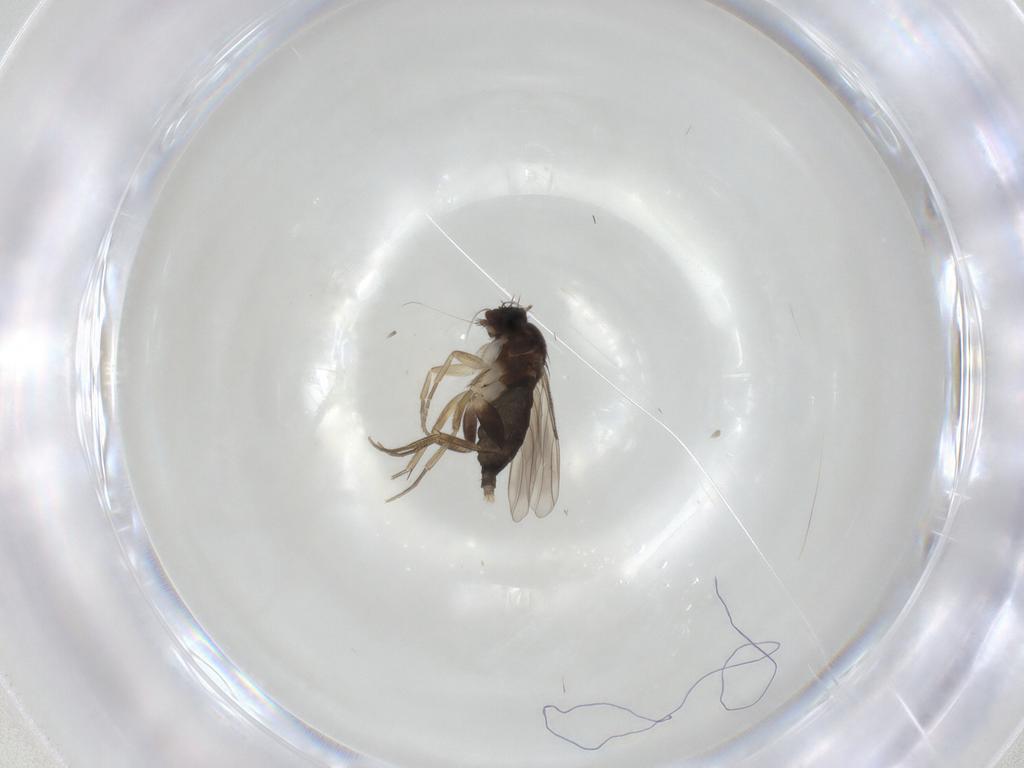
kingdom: Animalia
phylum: Arthropoda
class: Insecta
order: Diptera
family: Phoridae
